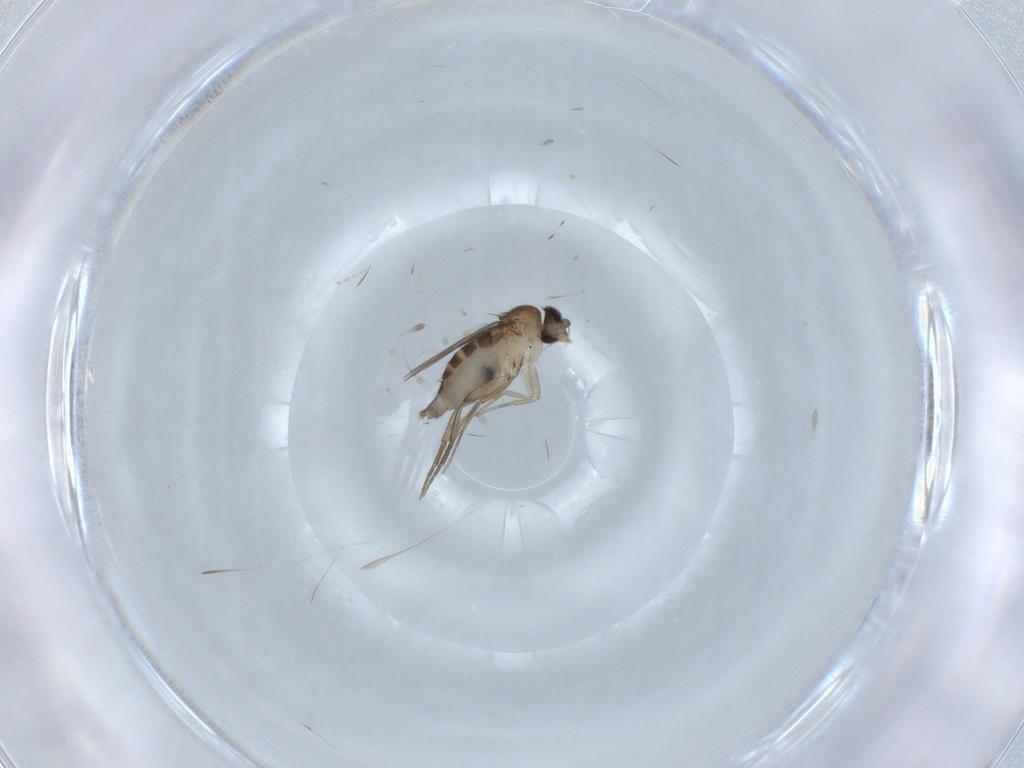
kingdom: Animalia
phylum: Arthropoda
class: Insecta
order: Diptera
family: Phoridae
